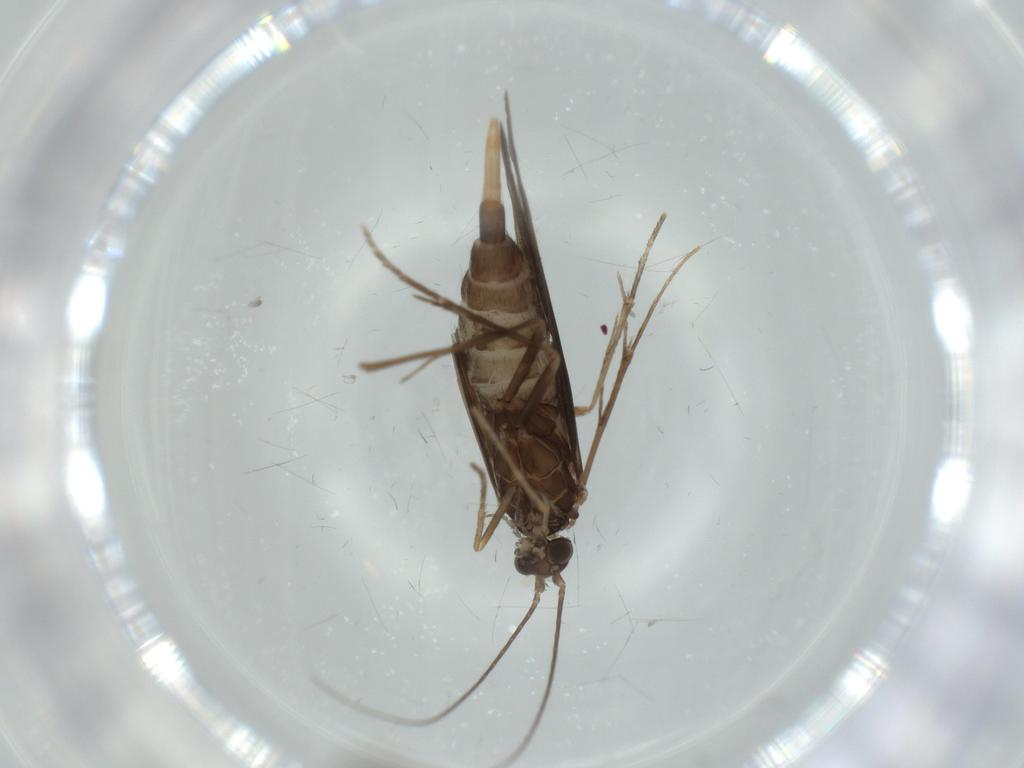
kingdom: Animalia
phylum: Arthropoda
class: Insecta
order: Trichoptera
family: Xiphocentronidae
